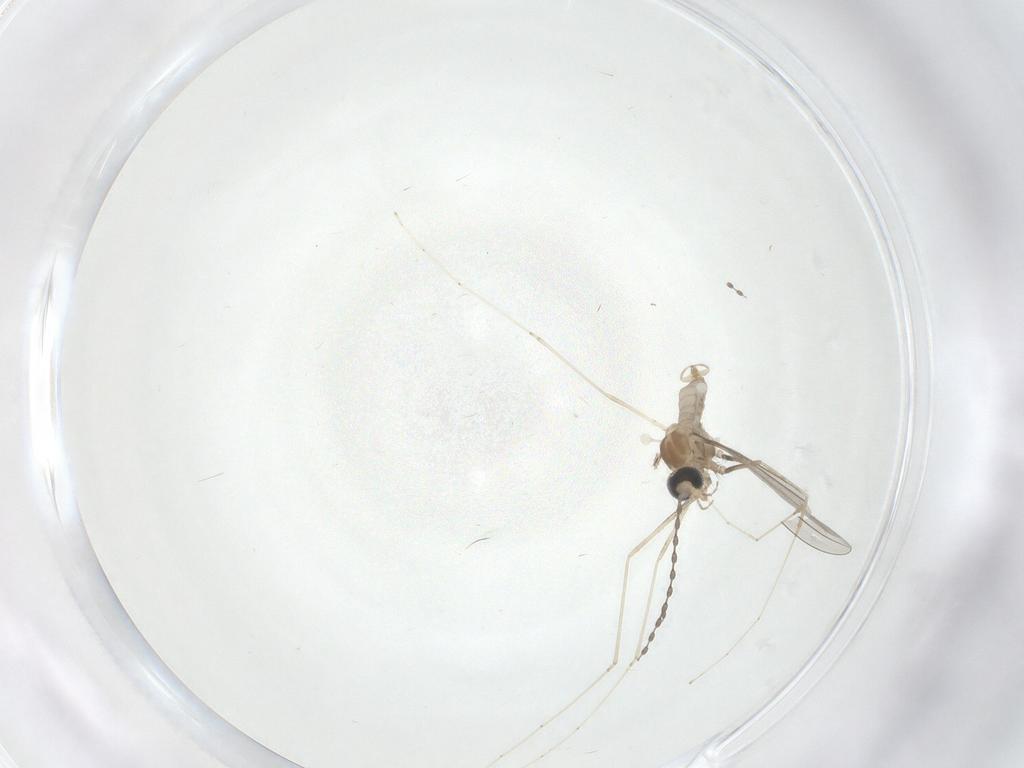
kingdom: Animalia
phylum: Arthropoda
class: Insecta
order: Diptera
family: Cecidomyiidae
